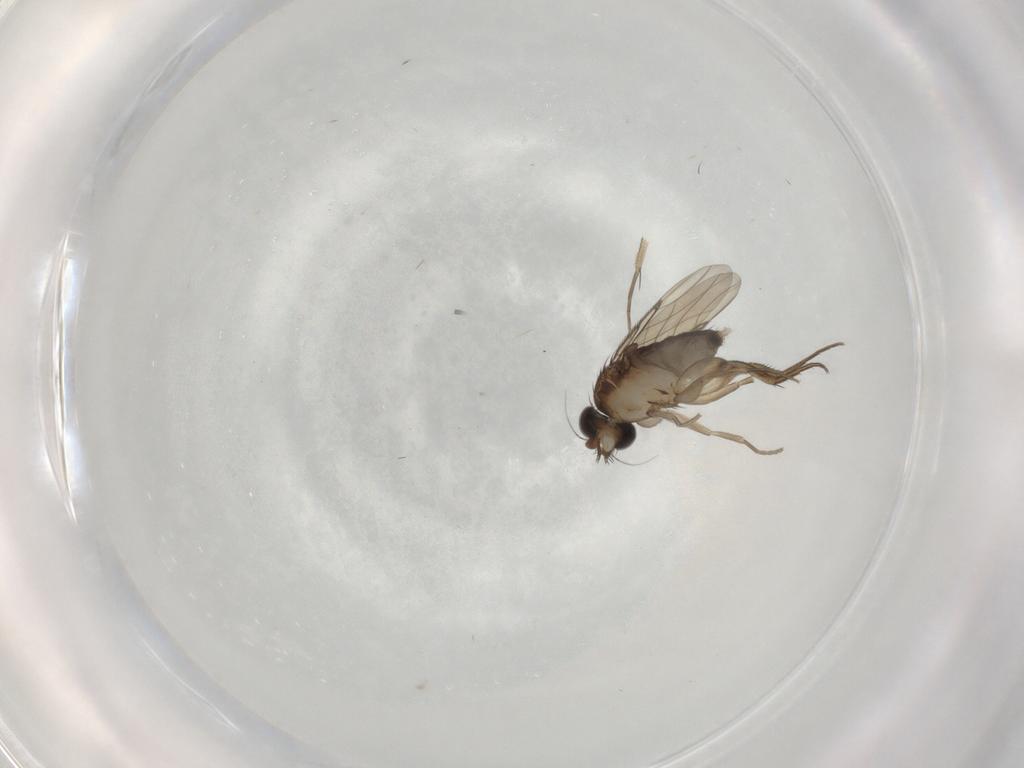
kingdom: Animalia
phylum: Arthropoda
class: Insecta
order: Diptera
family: Phoridae
